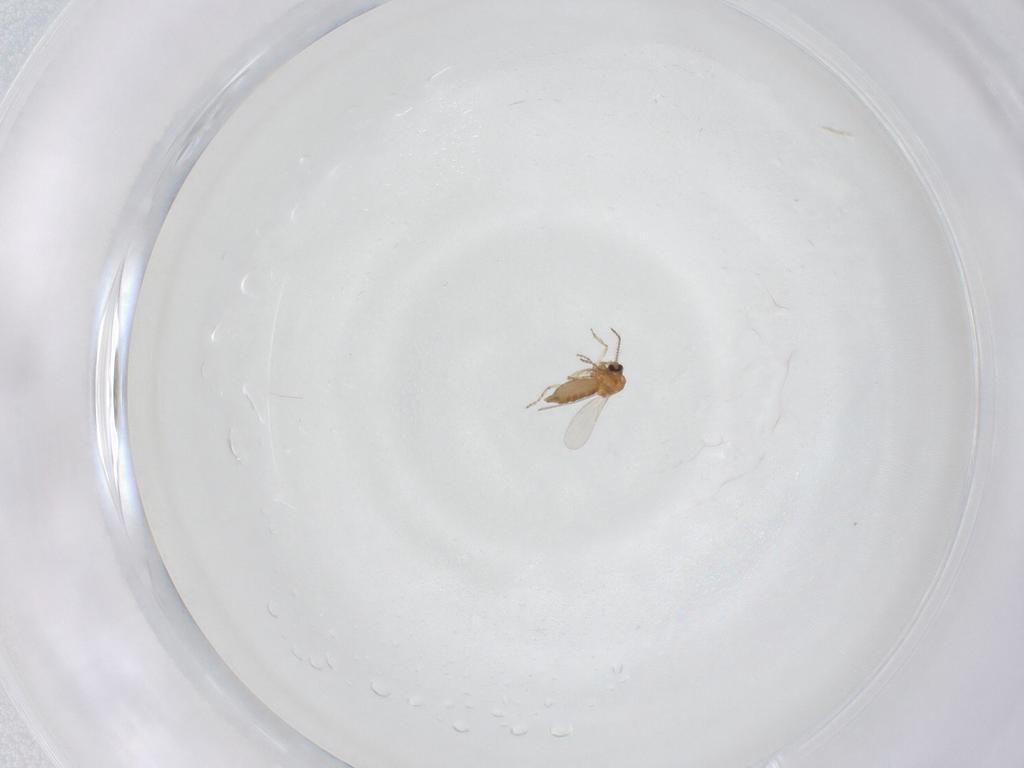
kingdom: Animalia
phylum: Arthropoda
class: Insecta
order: Diptera
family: Ceratopogonidae
